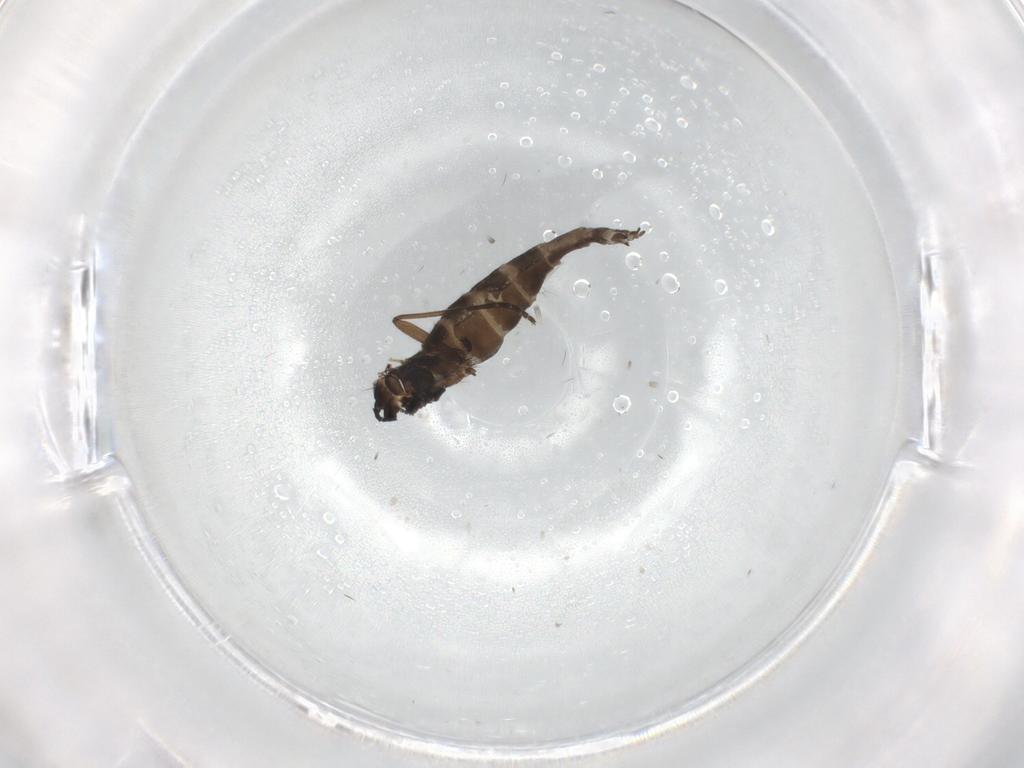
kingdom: Animalia
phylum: Arthropoda
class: Insecta
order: Diptera
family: Sciaridae
